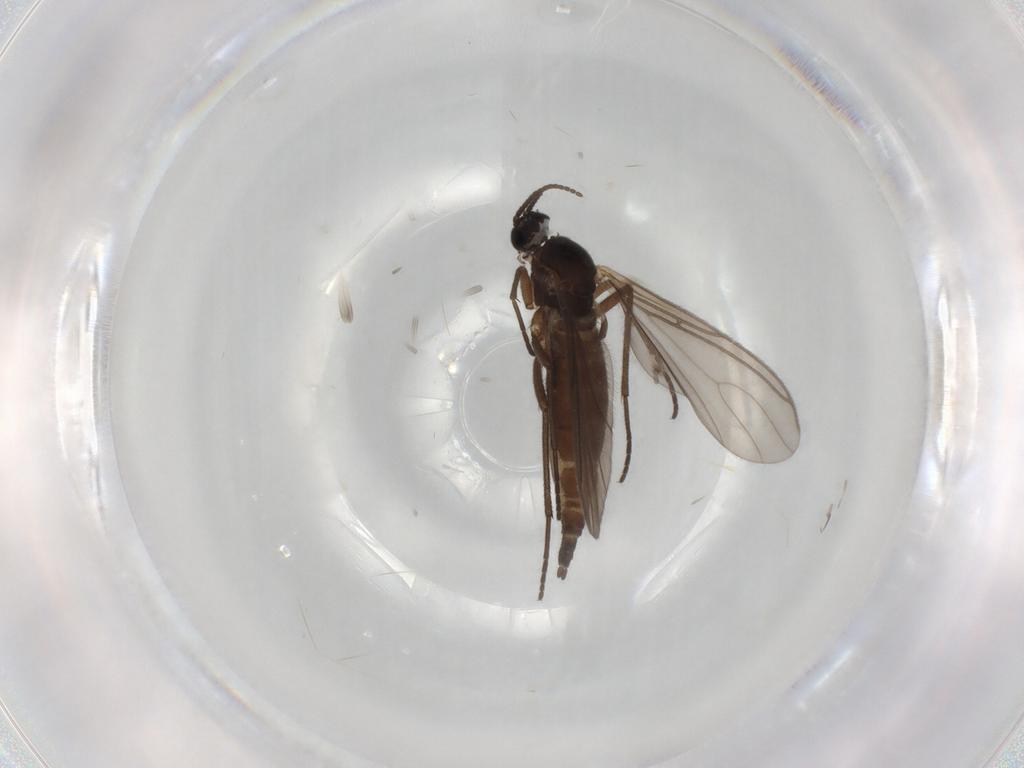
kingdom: Animalia
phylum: Arthropoda
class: Insecta
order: Diptera
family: Sciaridae
